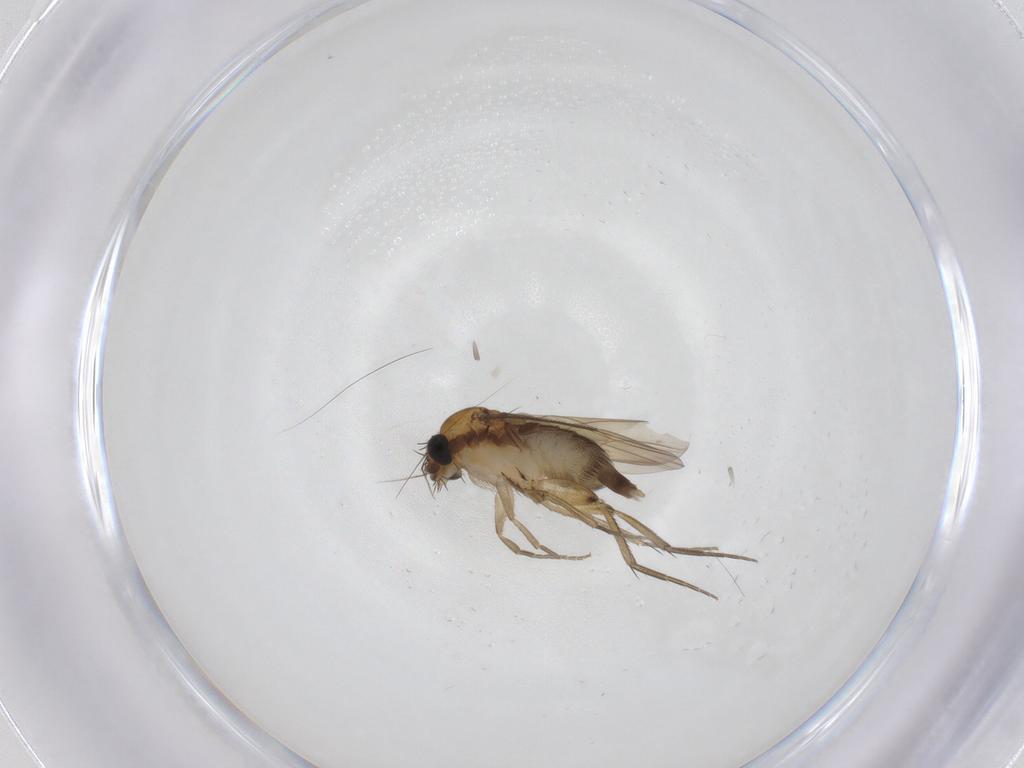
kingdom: Animalia
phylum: Arthropoda
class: Insecta
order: Diptera
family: Phoridae
